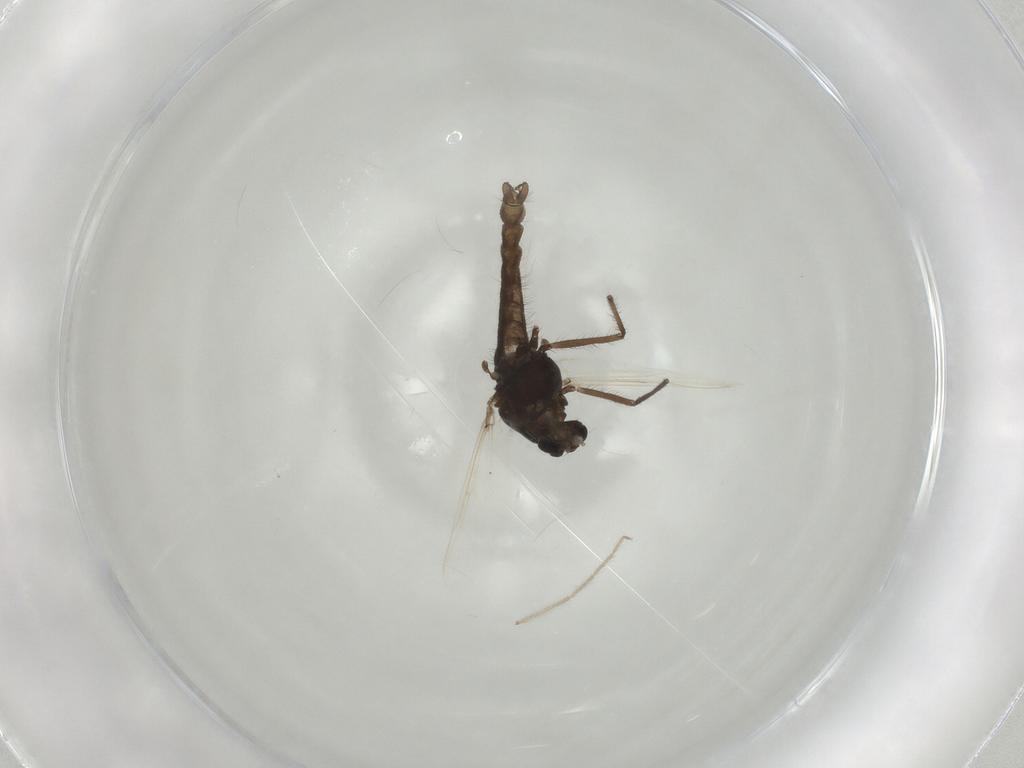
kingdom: Animalia
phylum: Arthropoda
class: Insecta
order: Diptera
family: Chironomidae
